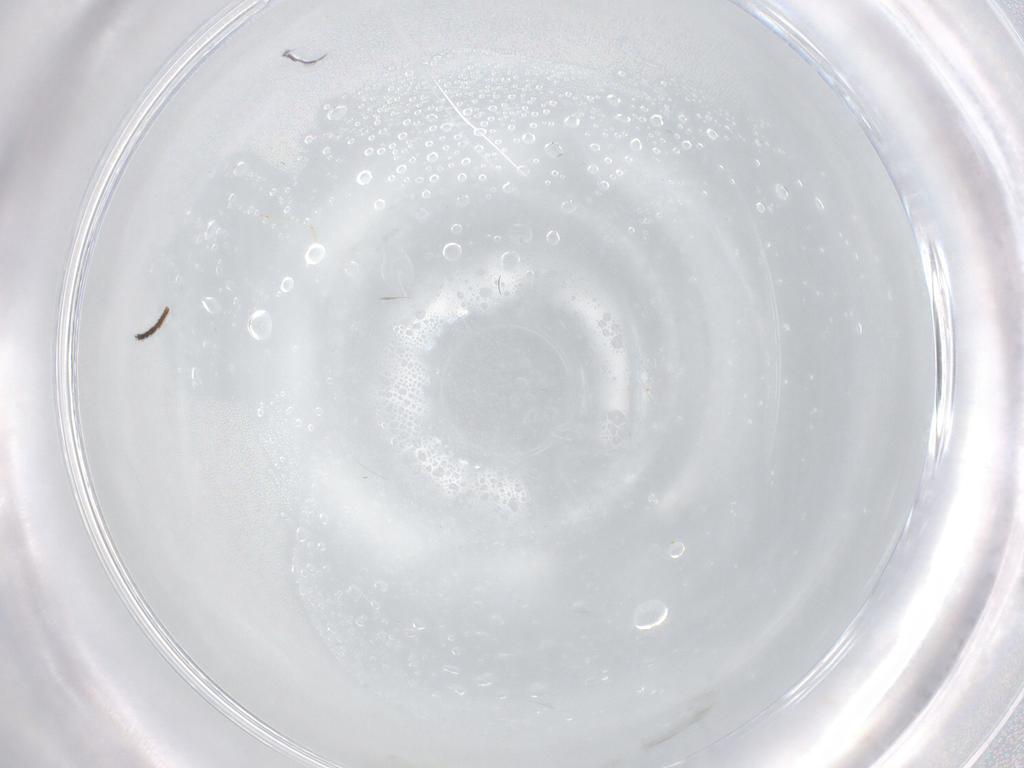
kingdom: Animalia
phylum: Arthropoda
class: Insecta
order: Diptera
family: Cecidomyiidae
